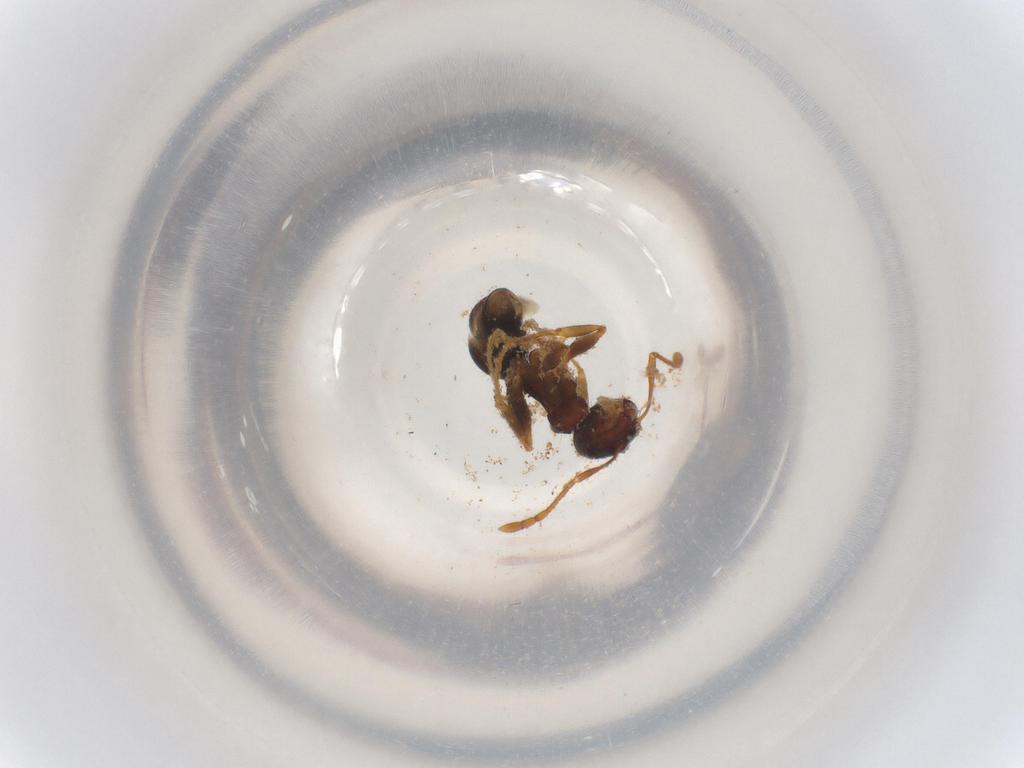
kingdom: Animalia
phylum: Arthropoda
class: Insecta
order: Hymenoptera
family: Formicidae
